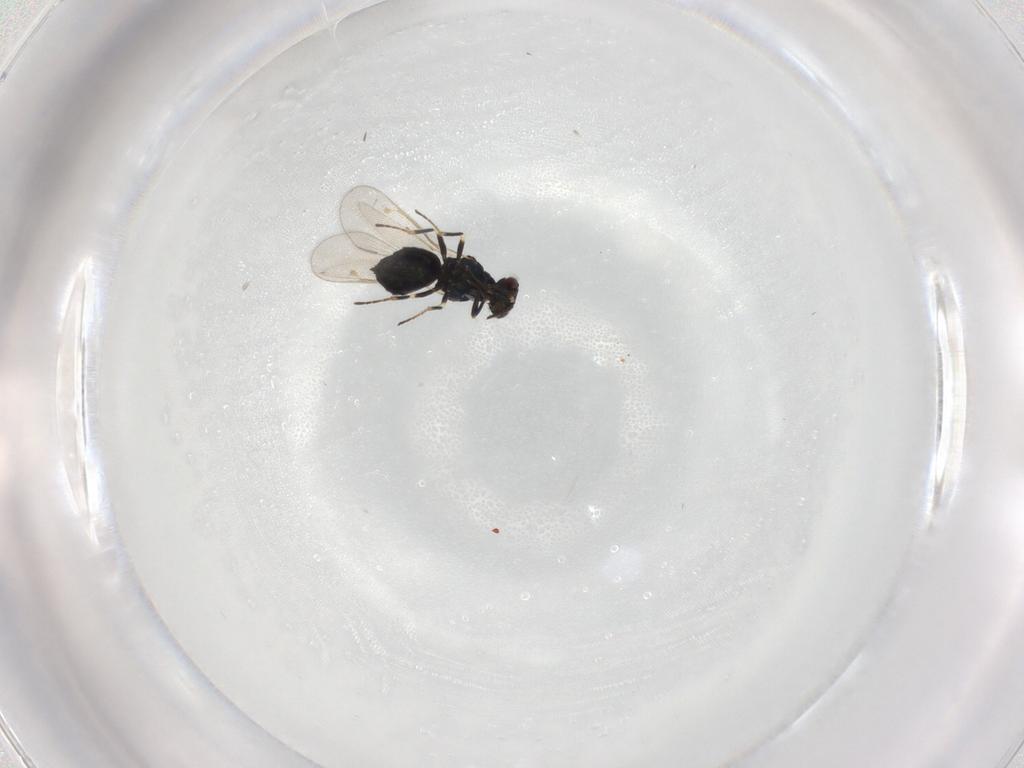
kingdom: Animalia
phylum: Arthropoda
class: Insecta
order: Hymenoptera
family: Eulophidae
